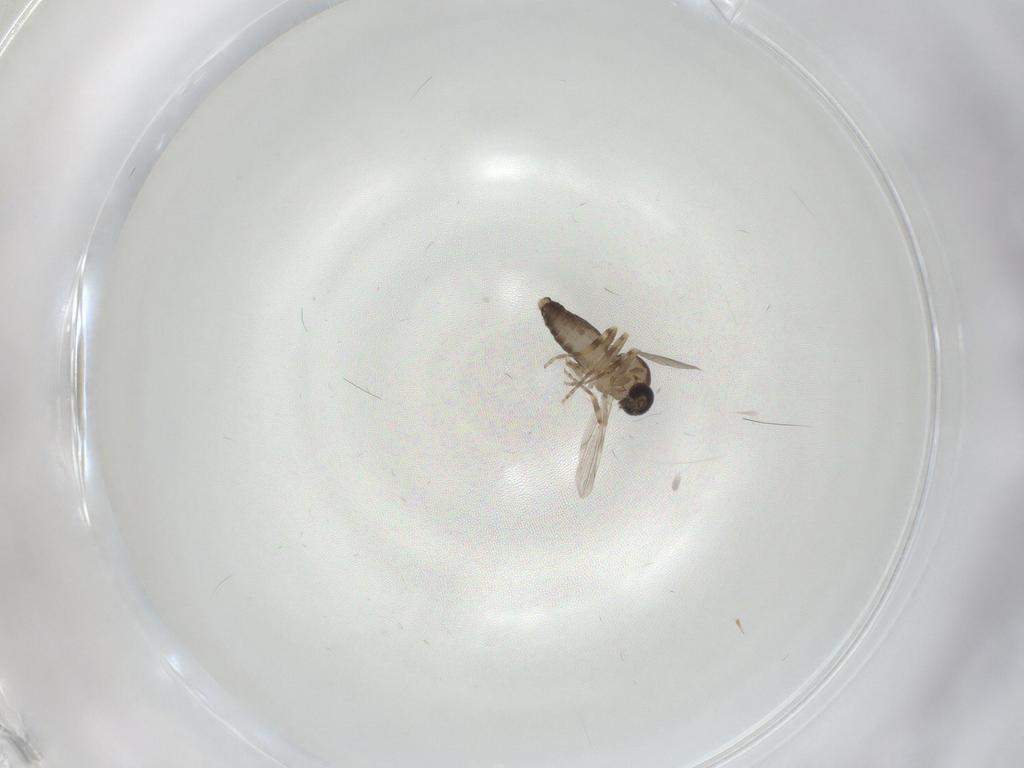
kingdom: Animalia
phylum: Arthropoda
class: Insecta
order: Diptera
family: Ceratopogonidae
